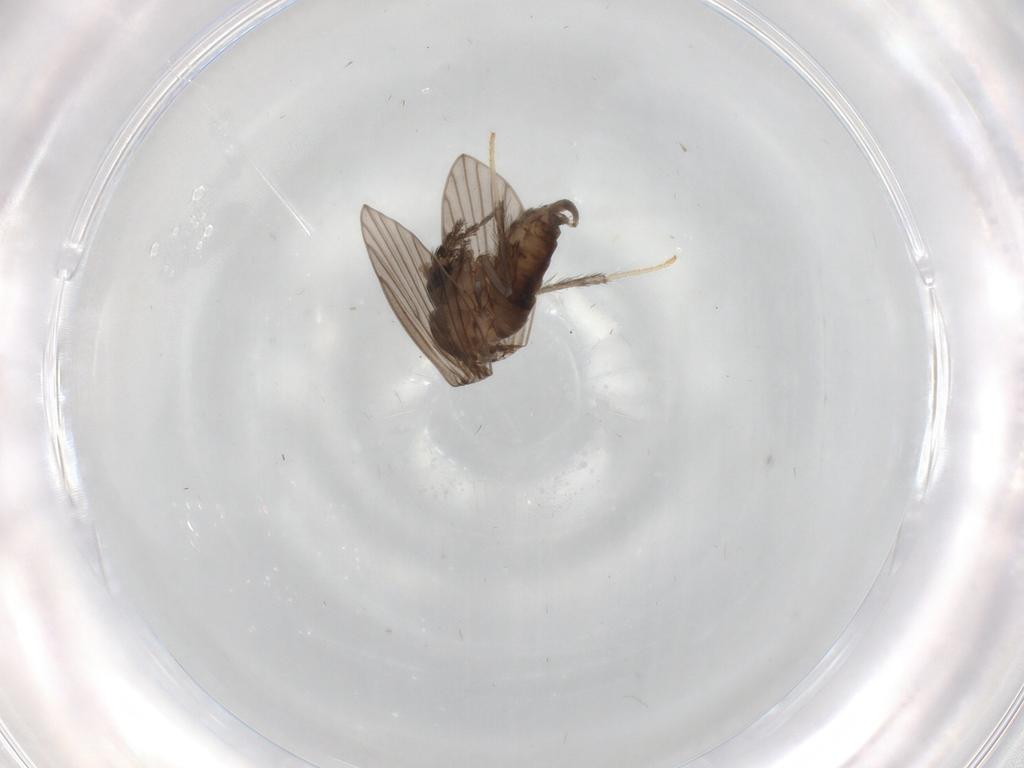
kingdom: Animalia
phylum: Arthropoda
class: Insecta
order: Diptera
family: Psychodidae
